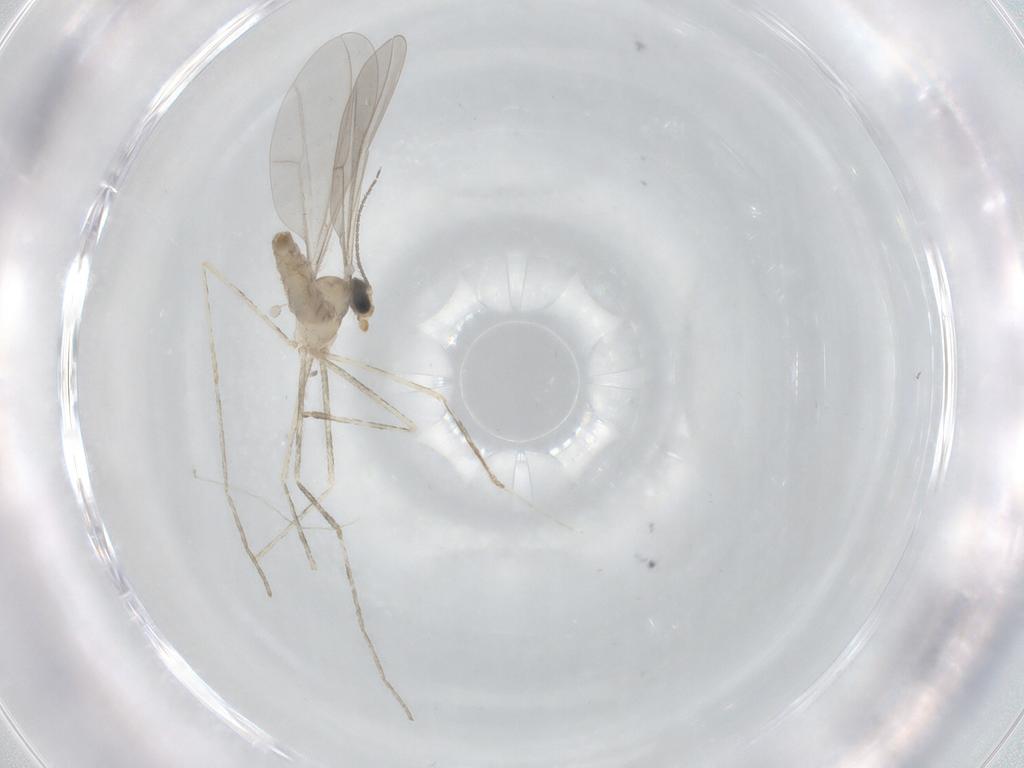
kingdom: Animalia
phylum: Arthropoda
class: Insecta
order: Diptera
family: Cecidomyiidae
